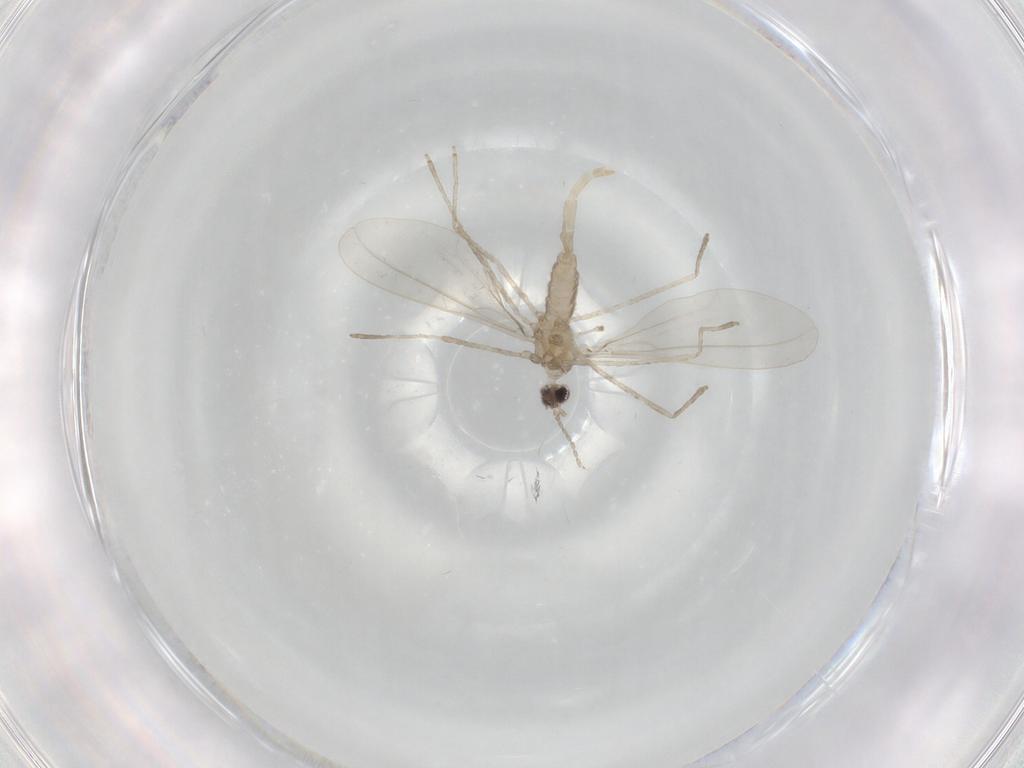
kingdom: Animalia
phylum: Arthropoda
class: Insecta
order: Diptera
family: Cecidomyiidae
